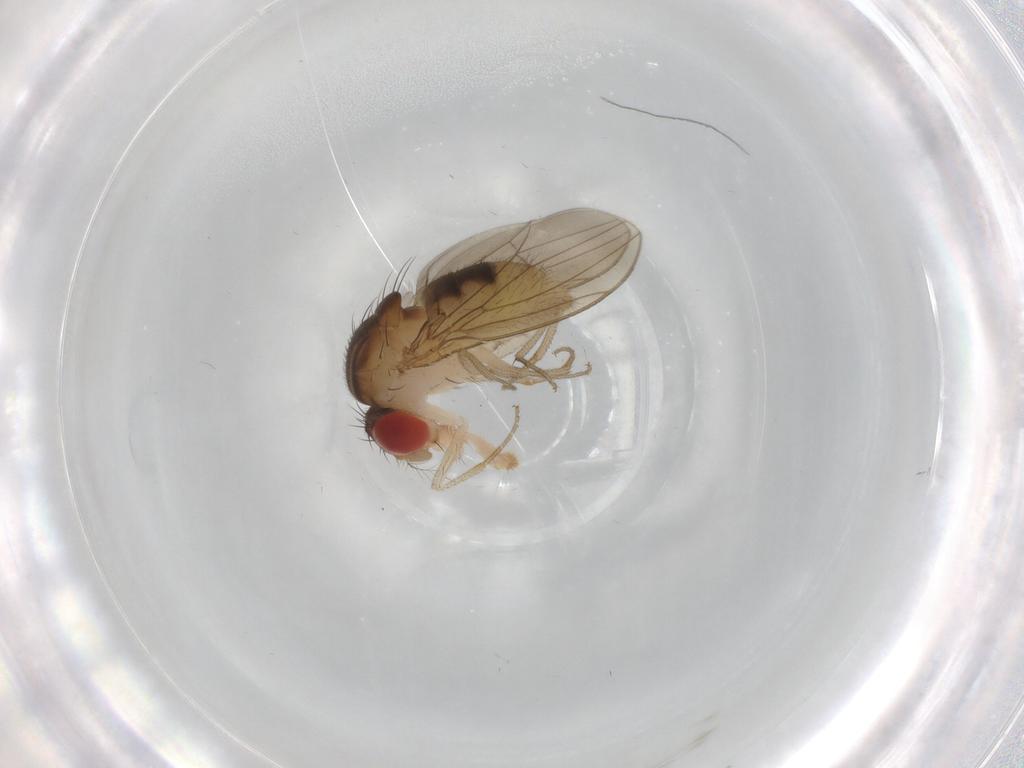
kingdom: Animalia
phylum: Arthropoda
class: Insecta
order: Diptera
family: Drosophilidae
